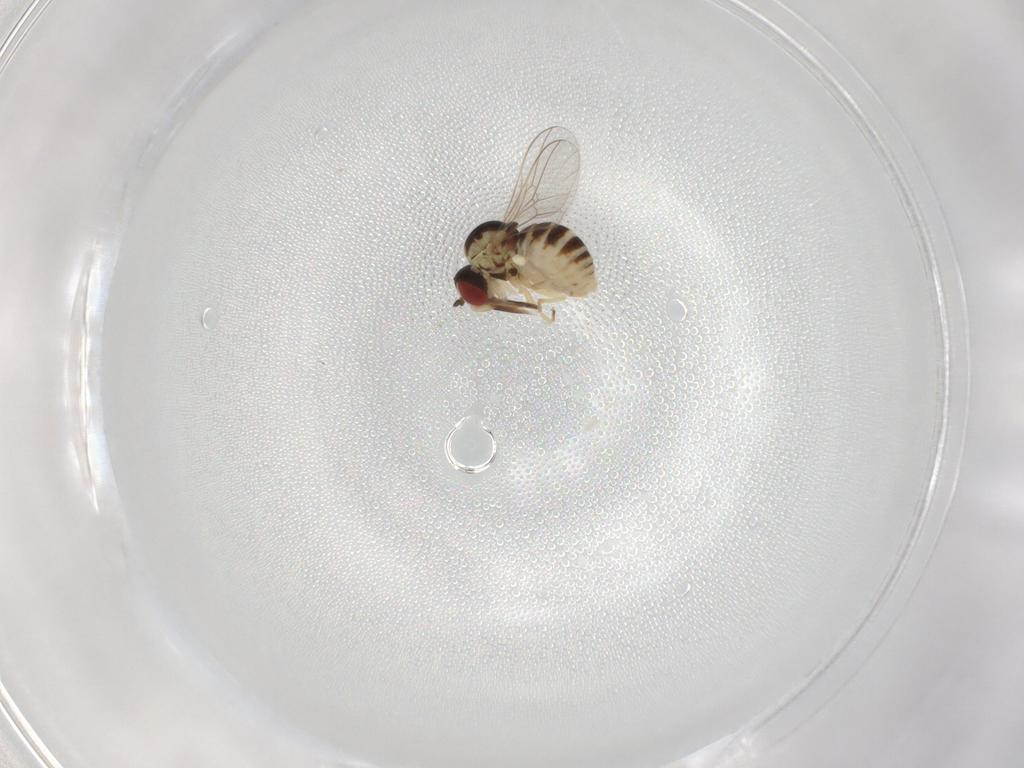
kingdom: Animalia
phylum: Arthropoda
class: Insecta
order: Diptera
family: Bombyliidae
